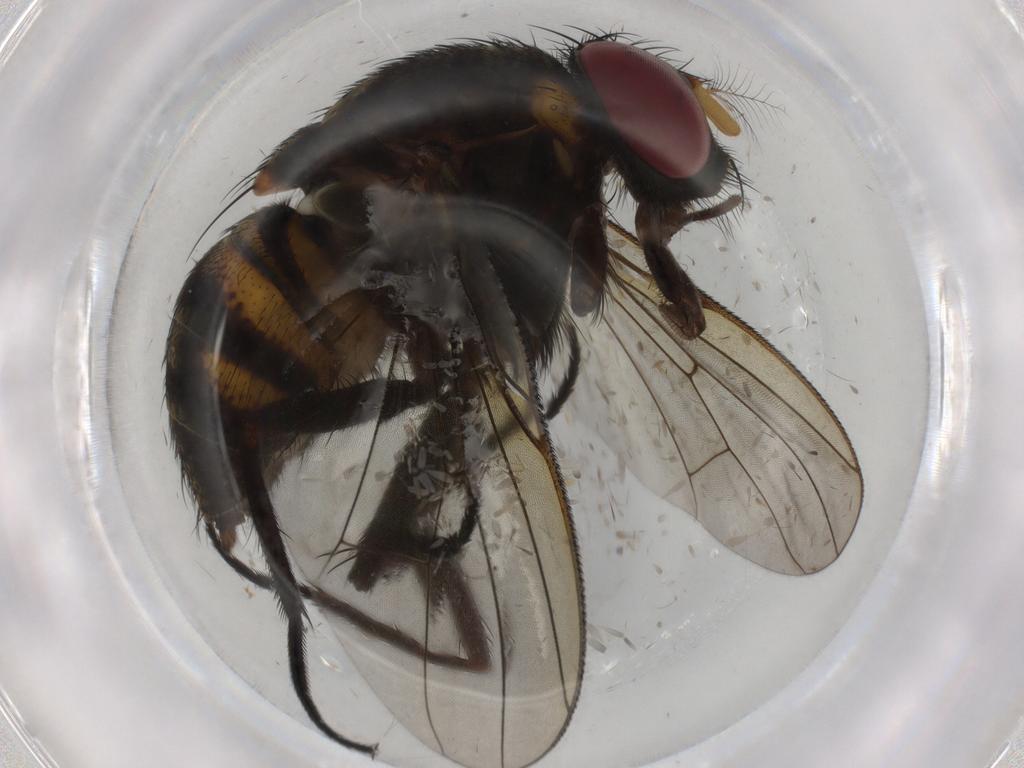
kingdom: Animalia
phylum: Arthropoda
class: Insecta
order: Diptera
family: Muscidae
